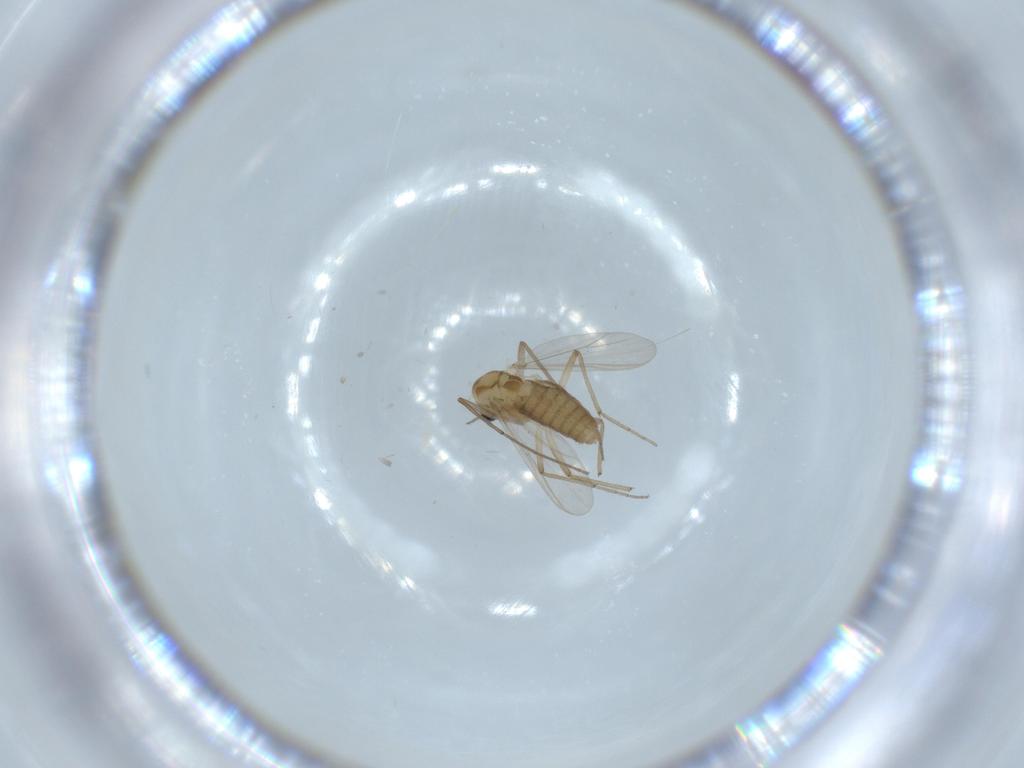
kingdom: Animalia
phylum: Arthropoda
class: Insecta
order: Diptera
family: Chironomidae
